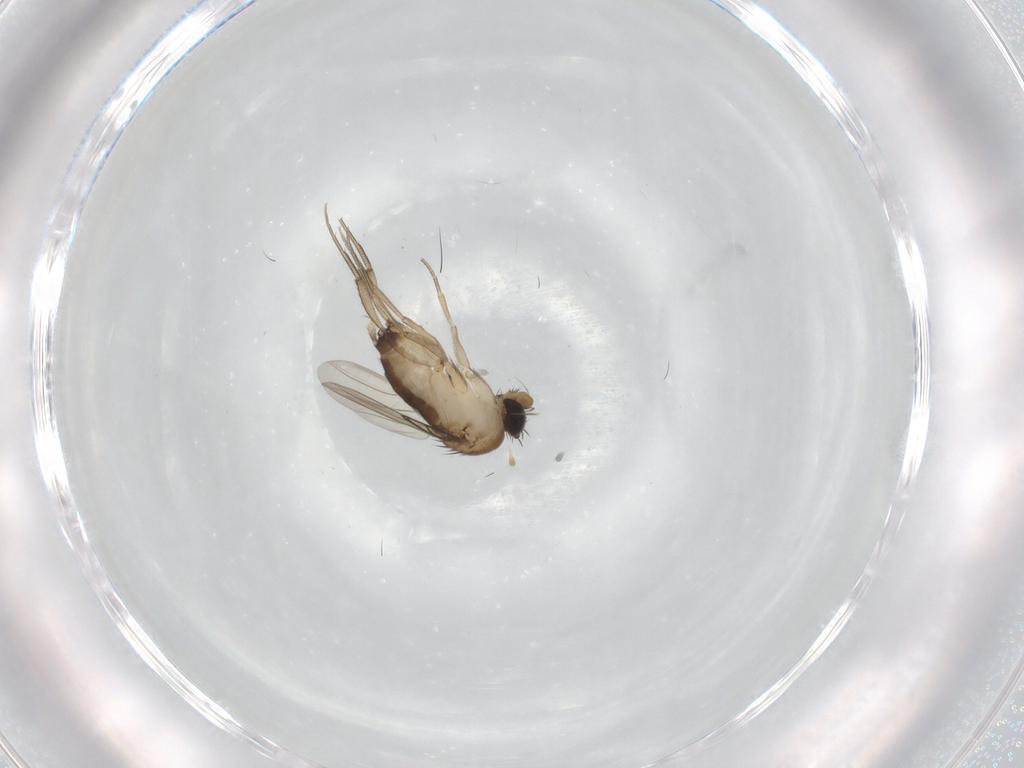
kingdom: Animalia
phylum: Arthropoda
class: Insecta
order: Diptera
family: Phoridae
